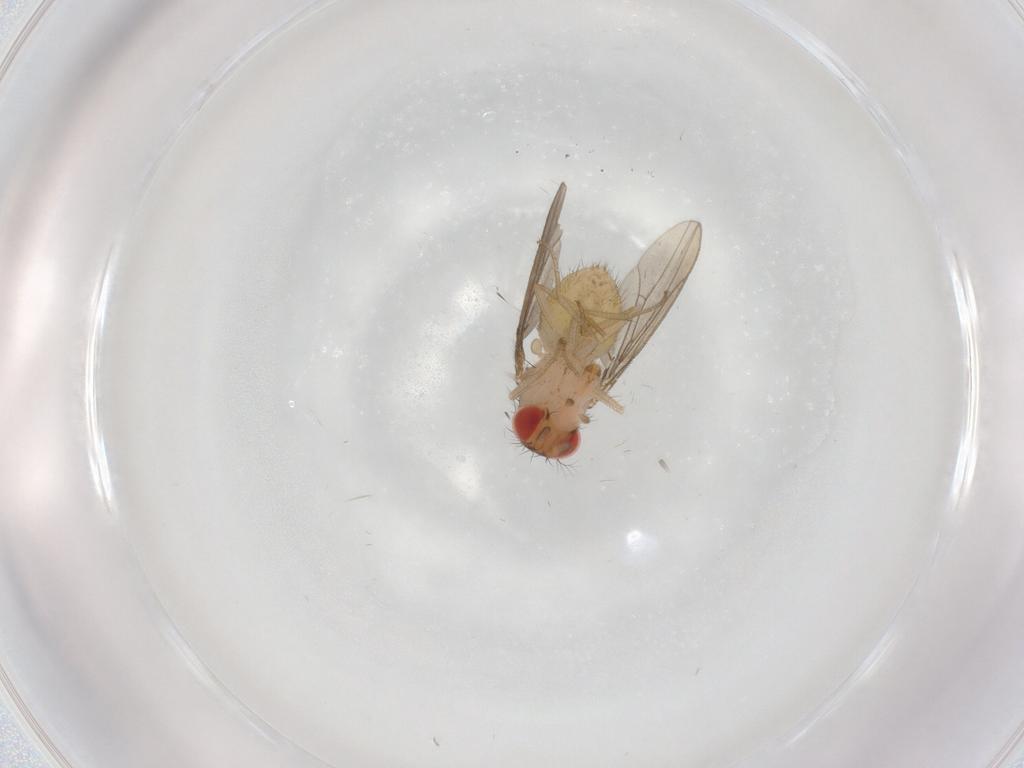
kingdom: Animalia
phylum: Arthropoda
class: Insecta
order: Diptera
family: Drosophilidae
